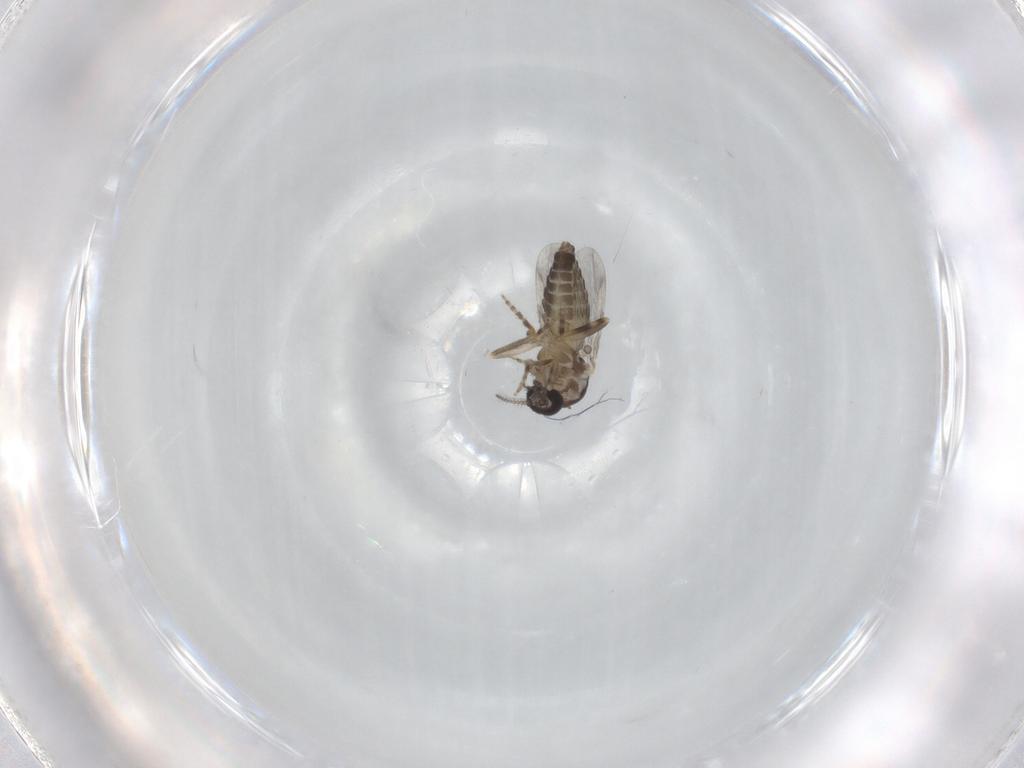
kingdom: Animalia
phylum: Arthropoda
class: Insecta
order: Diptera
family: Ceratopogonidae
